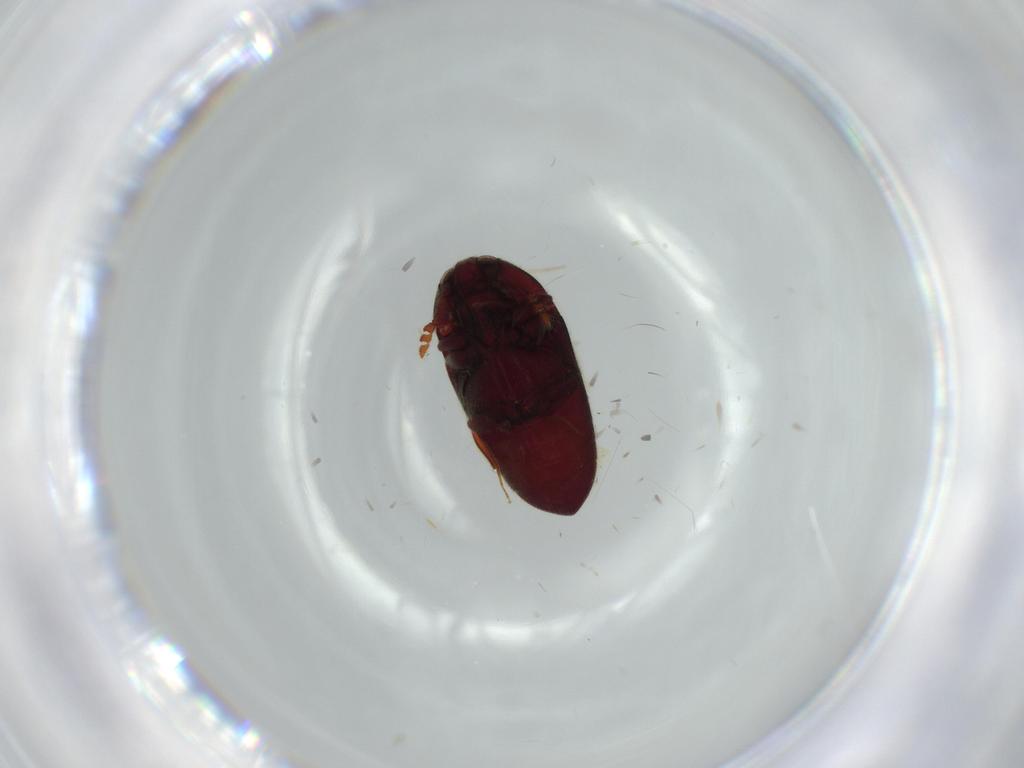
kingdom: Animalia
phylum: Arthropoda
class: Insecta
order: Coleoptera
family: Throscidae
